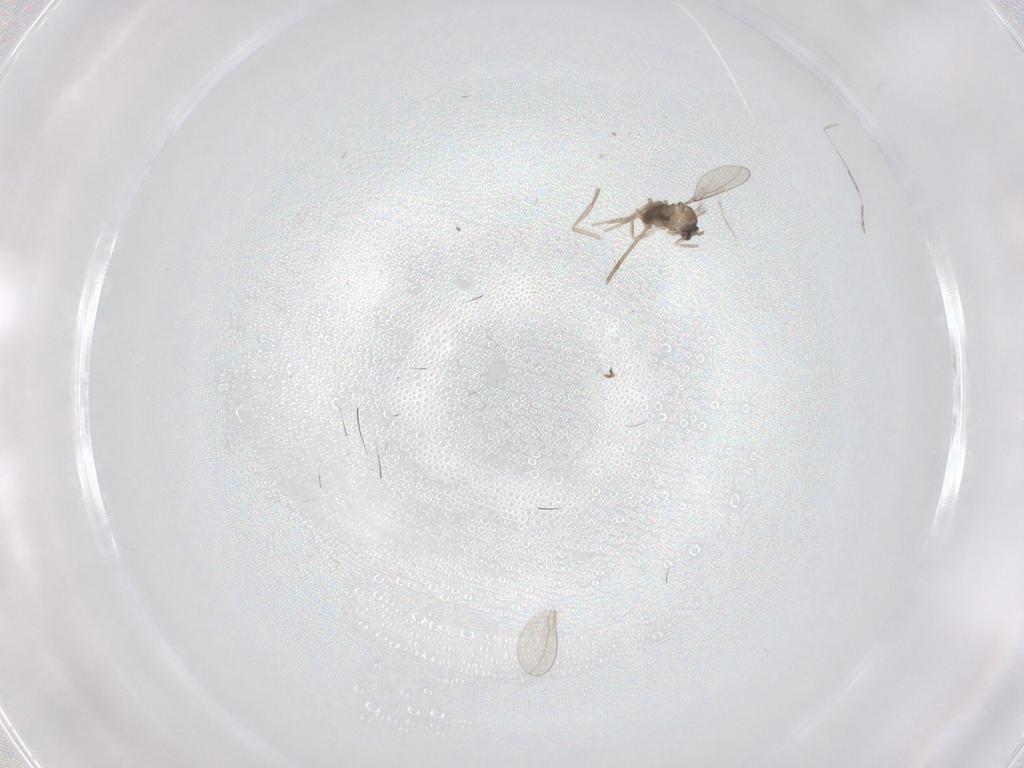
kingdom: Animalia
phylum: Arthropoda
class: Insecta
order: Diptera
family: Cecidomyiidae
